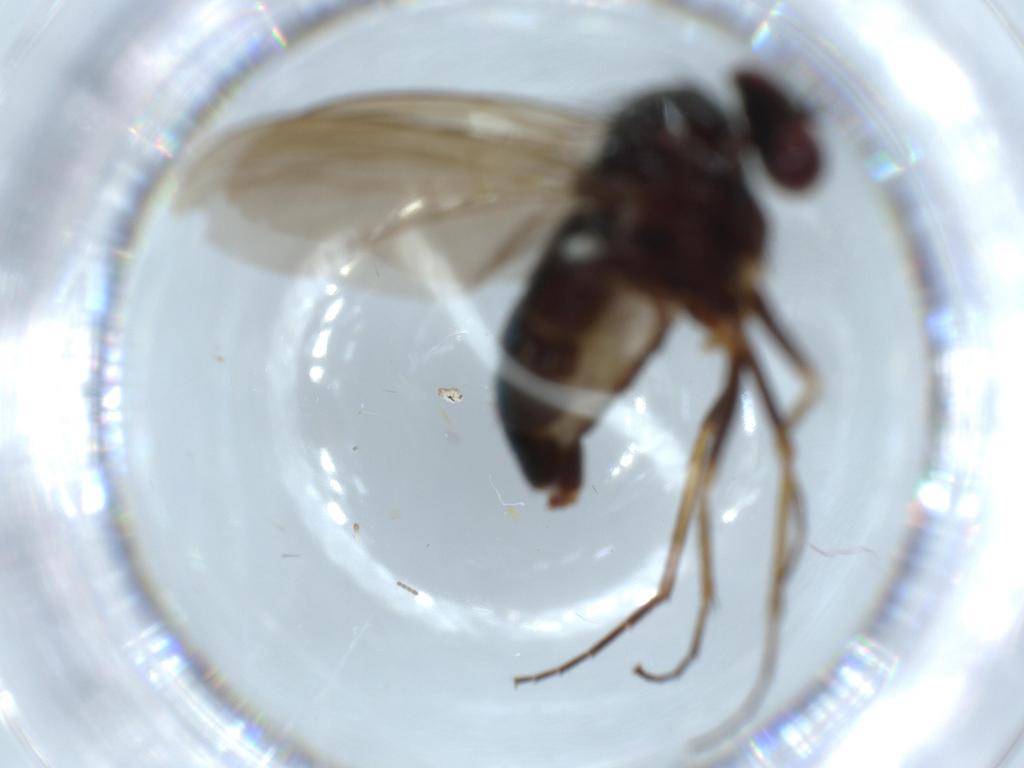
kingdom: Animalia
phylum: Arthropoda
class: Insecta
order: Diptera
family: Dolichopodidae
